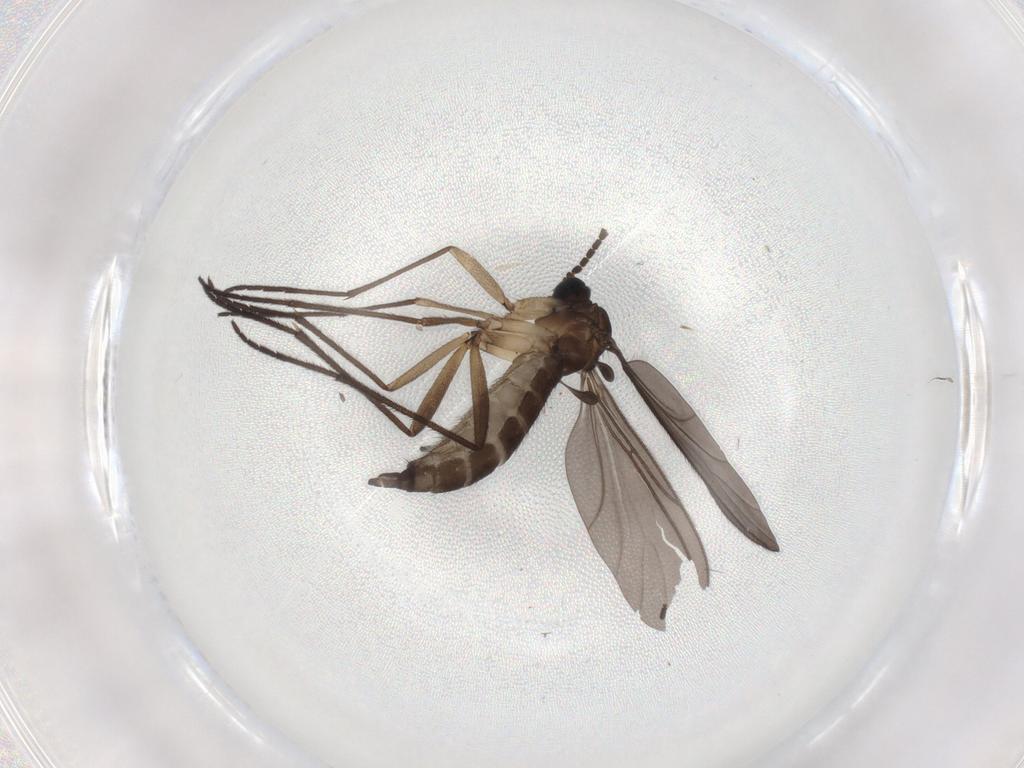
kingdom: Animalia
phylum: Arthropoda
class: Insecta
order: Diptera
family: Psychodidae
